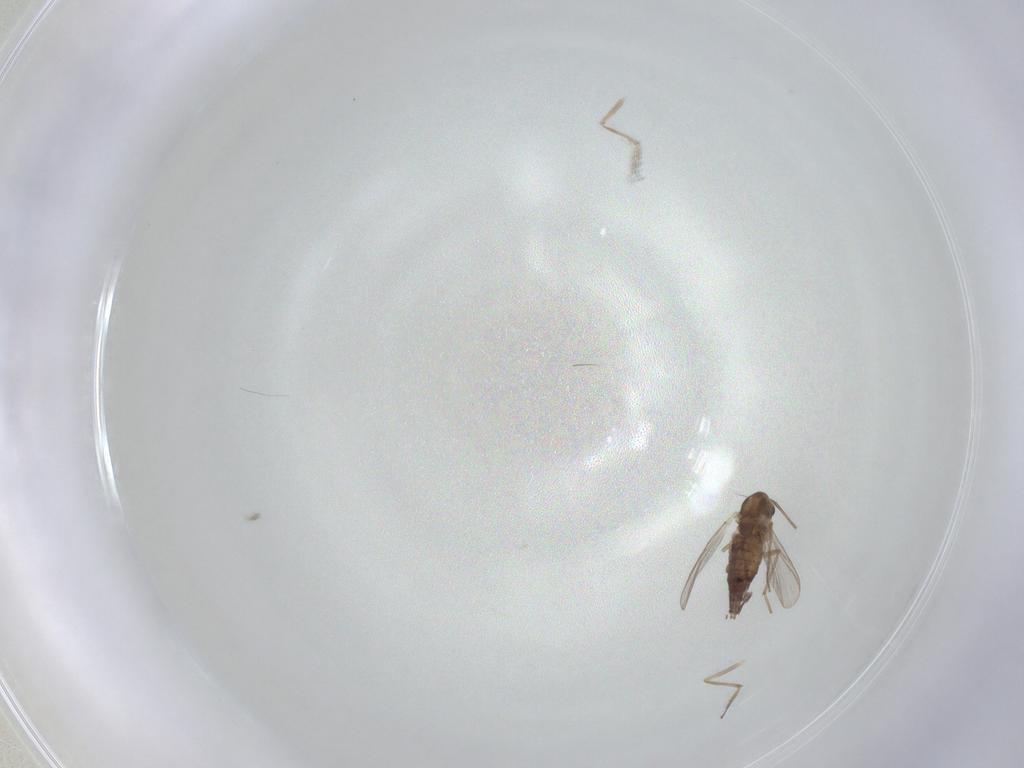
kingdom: Animalia
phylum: Arthropoda
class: Insecta
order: Diptera
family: Chironomidae
